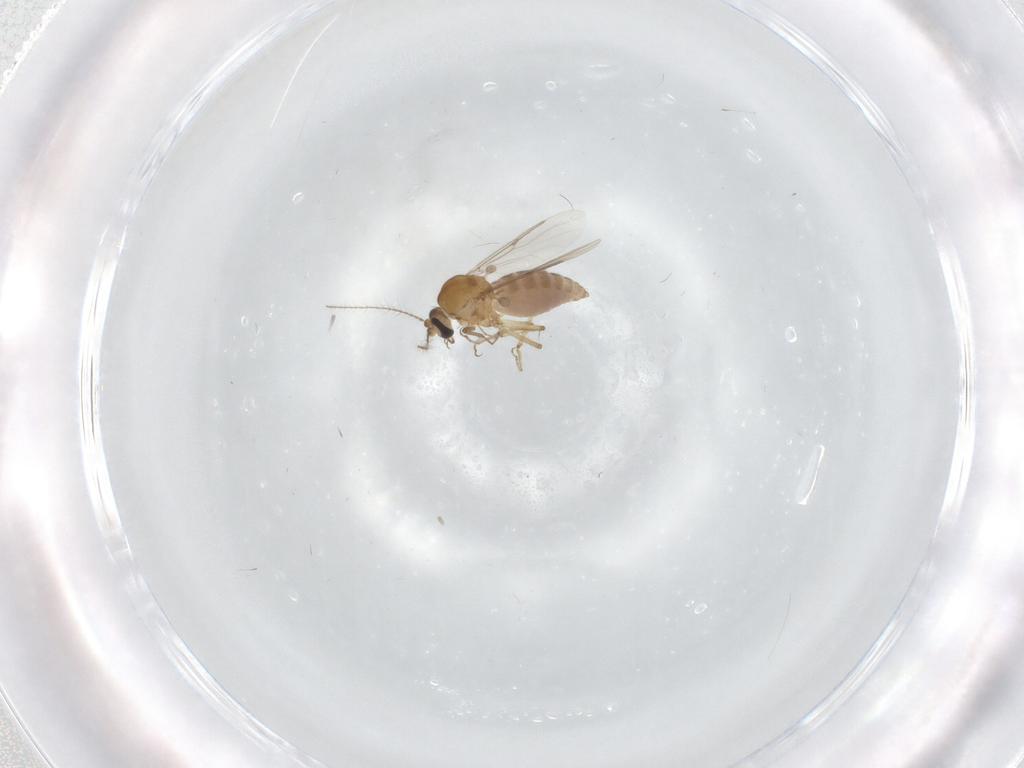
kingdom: Animalia
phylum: Arthropoda
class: Insecta
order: Diptera
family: Ceratopogonidae
